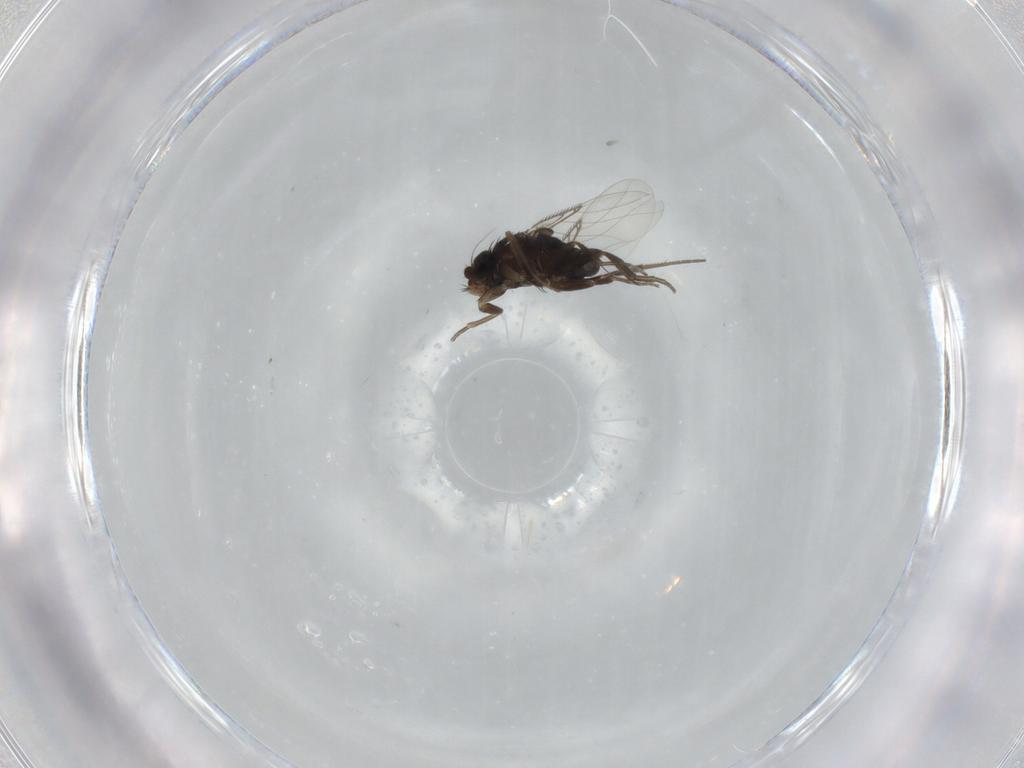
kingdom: Animalia
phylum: Arthropoda
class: Insecta
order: Diptera
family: Phoridae
